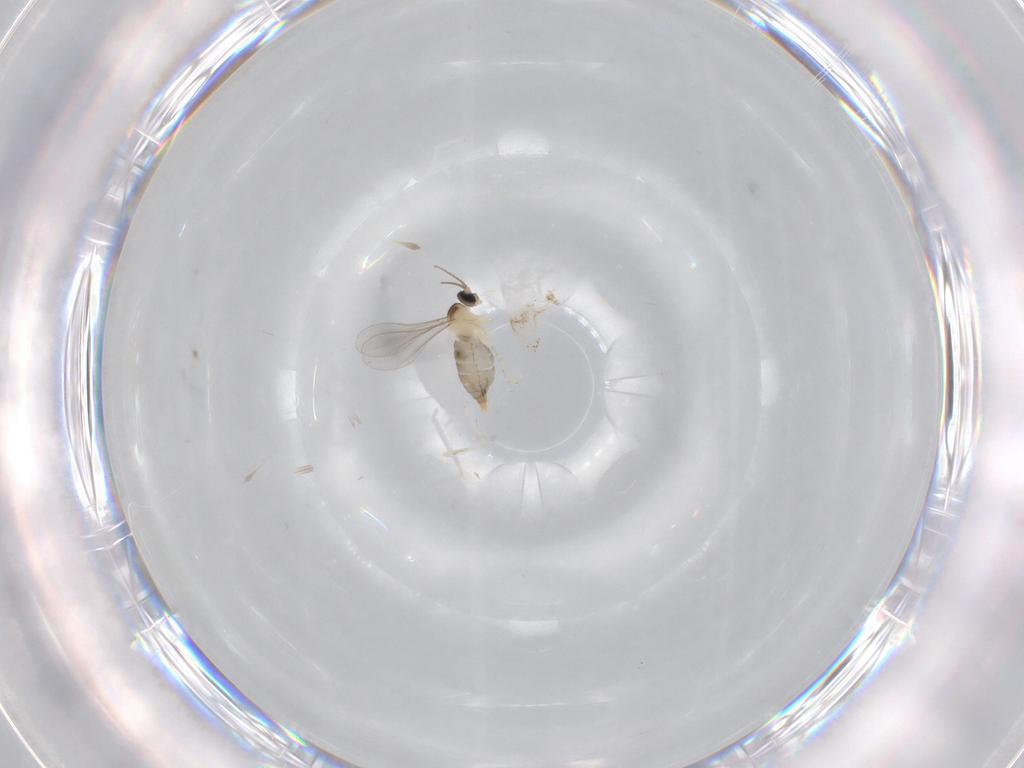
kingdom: Animalia
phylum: Arthropoda
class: Insecta
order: Diptera
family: Cecidomyiidae
